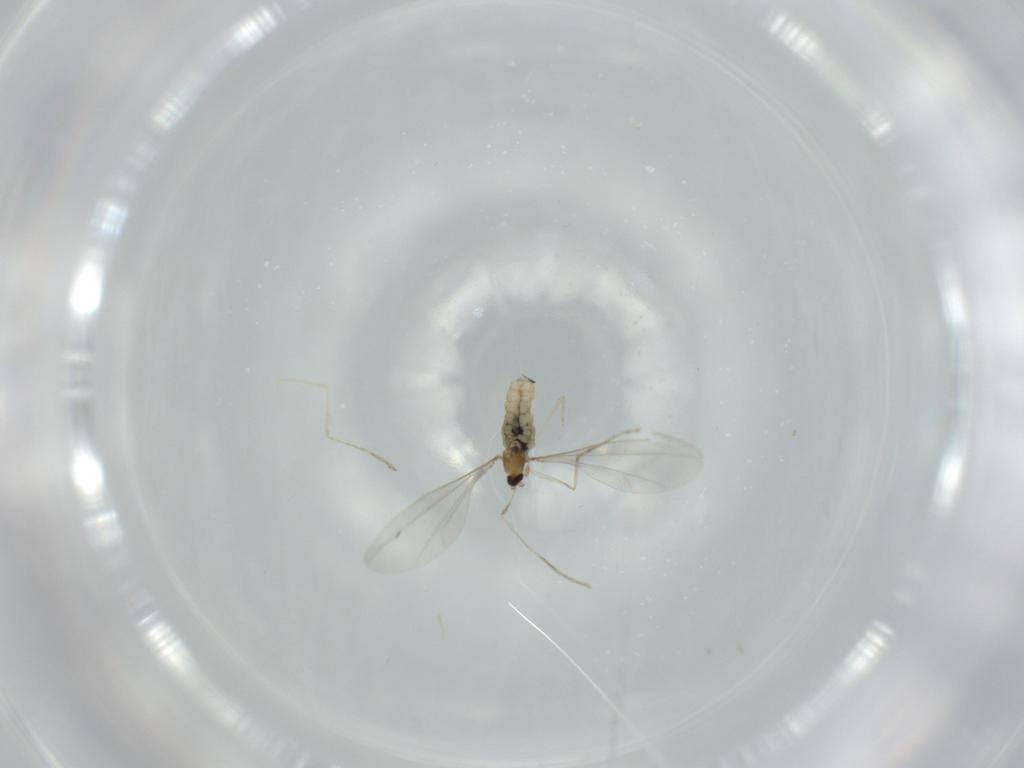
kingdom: Animalia
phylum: Arthropoda
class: Insecta
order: Diptera
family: Cecidomyiidae
